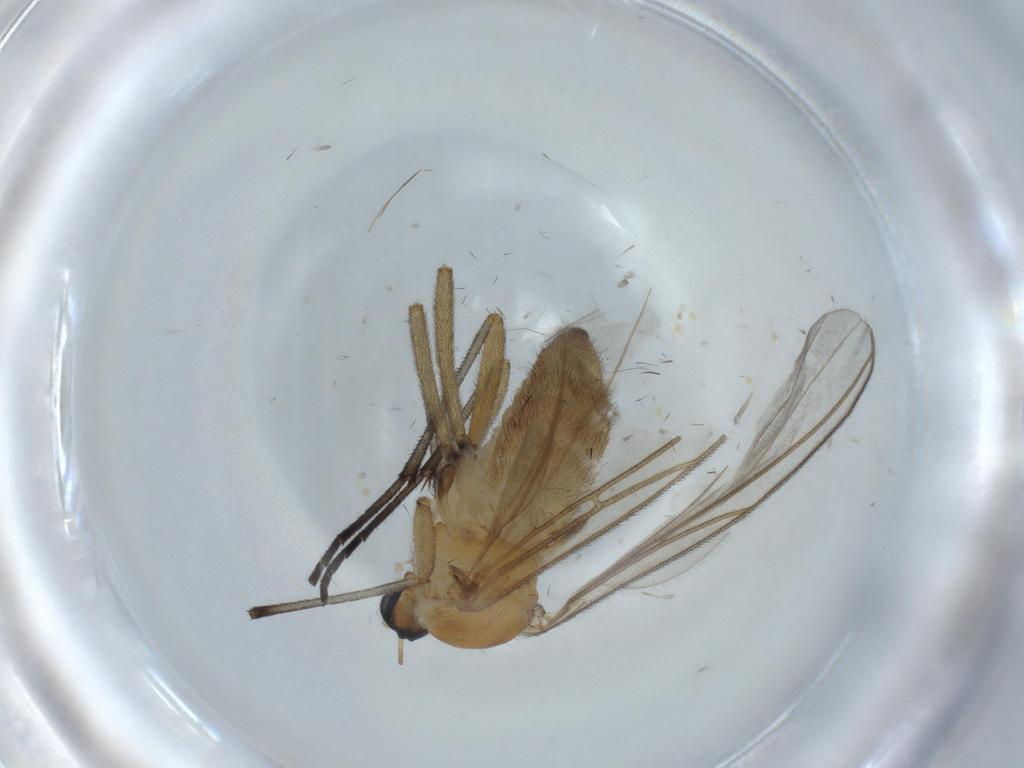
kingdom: Animalia
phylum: Arthropoda
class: Insecta
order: Diptera
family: Sciaridae
